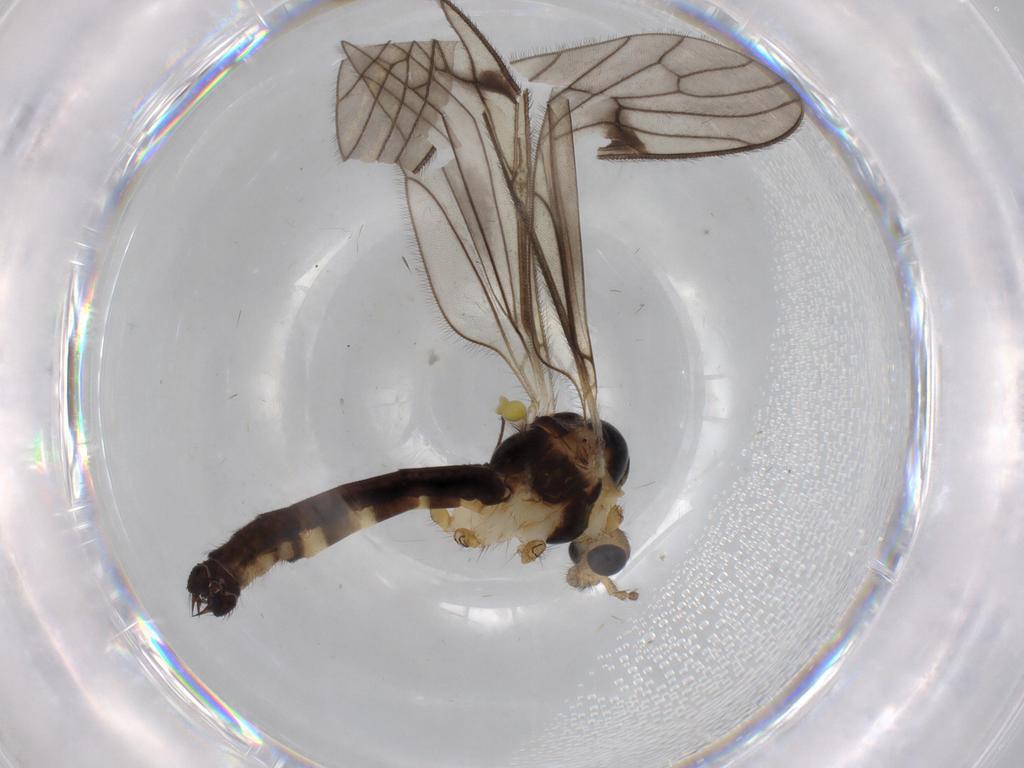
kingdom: Animalia
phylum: Arthropoda
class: Insecta
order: Diptera
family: Limoniidae
